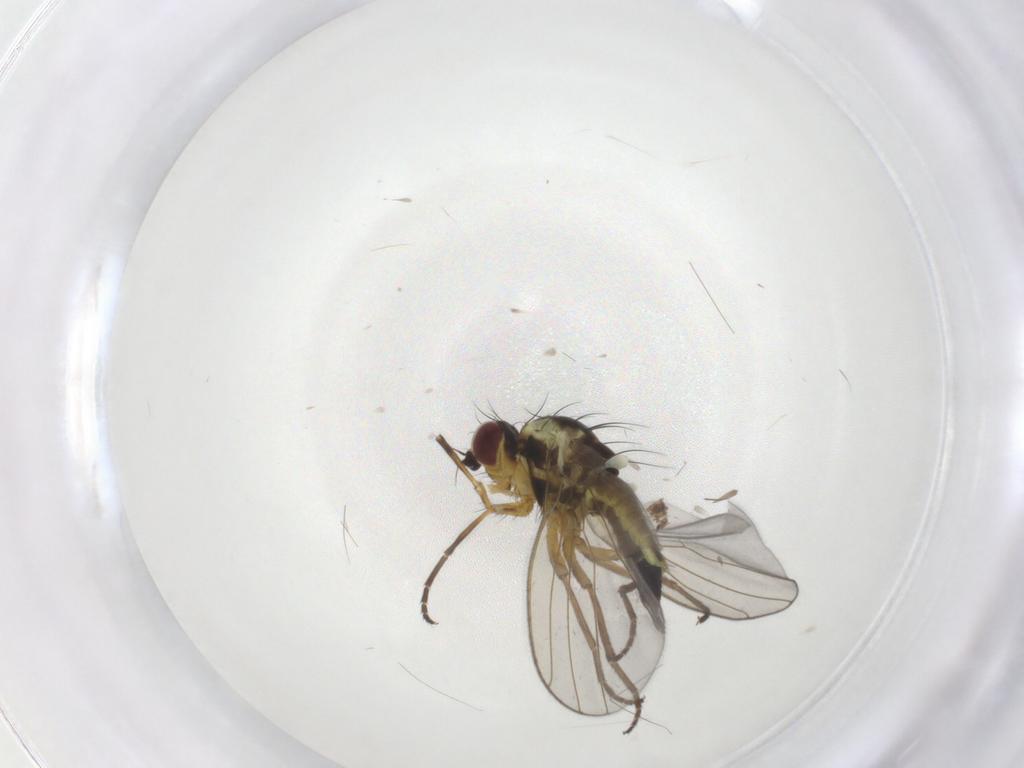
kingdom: Animalia
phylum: Arthropoda
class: Insecta
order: Diptera
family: Agromyzidae
